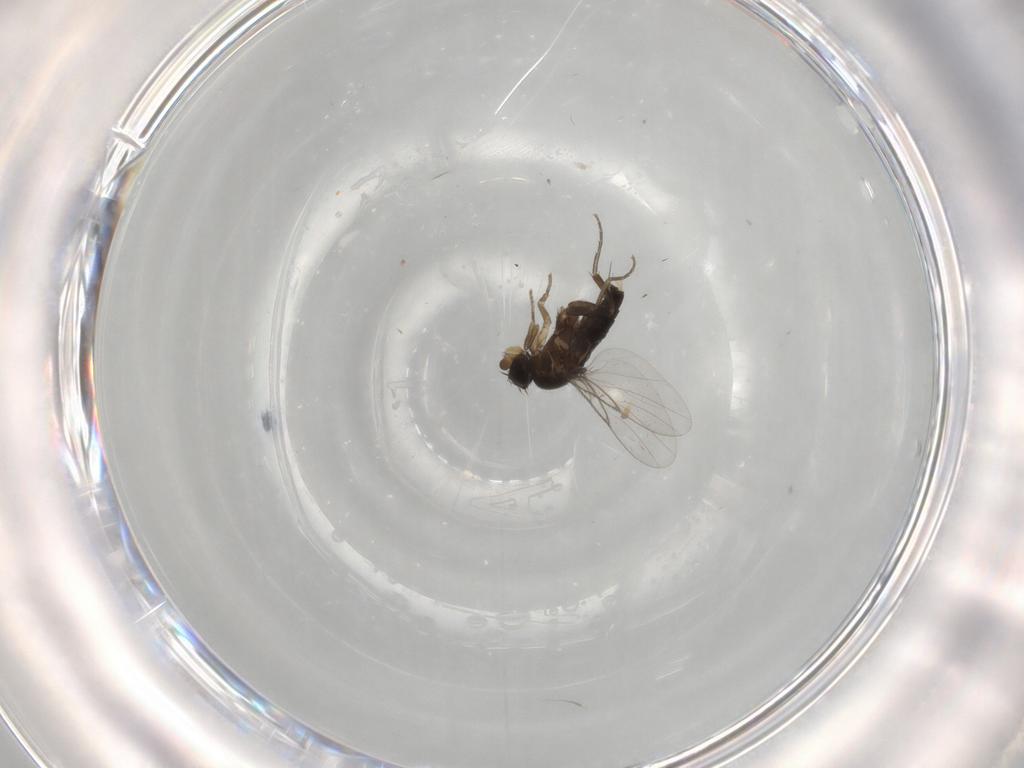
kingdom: Animalia
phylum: Arthropoda
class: Insecta
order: Diptera
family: Phoridae
